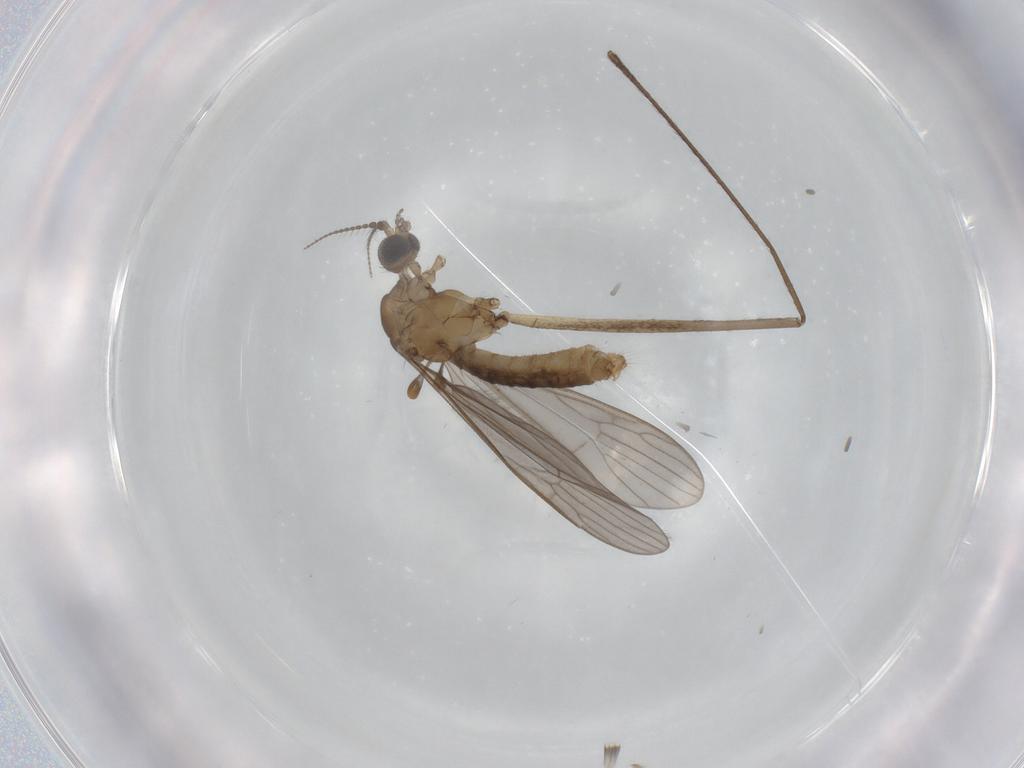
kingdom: Animalia
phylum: Arthropoda
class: Insecta
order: Diptera
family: Limoniidae
